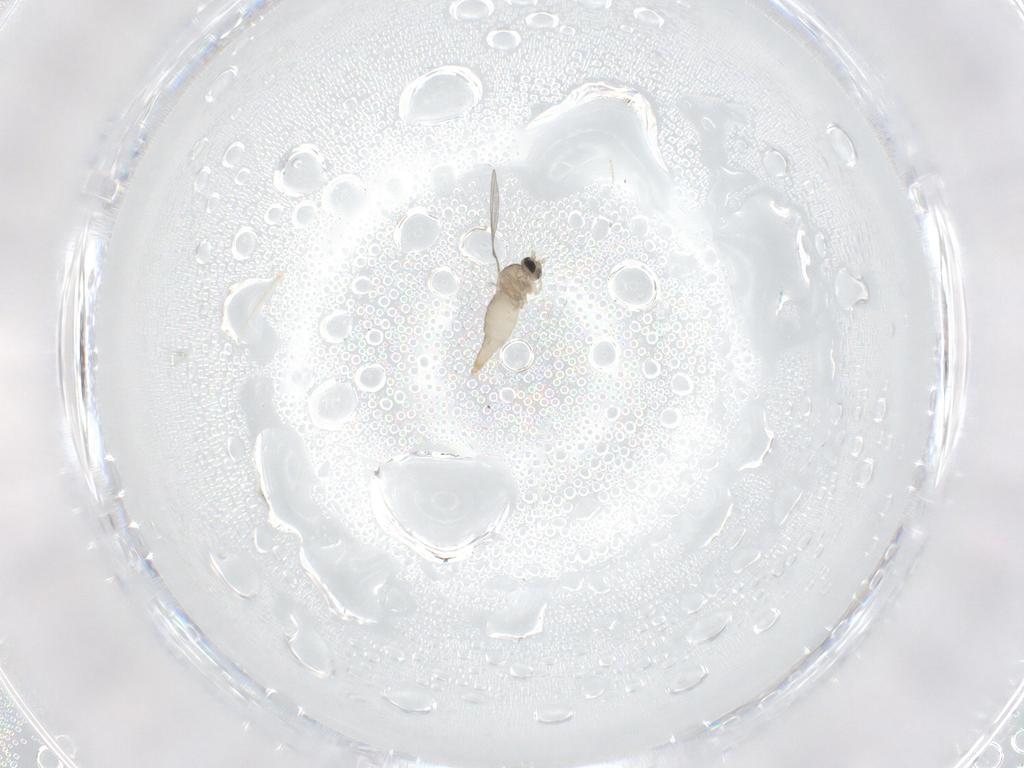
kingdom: Animalia
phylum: Arthropoda
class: Insecta
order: Diptera
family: Cecidomyiidae
